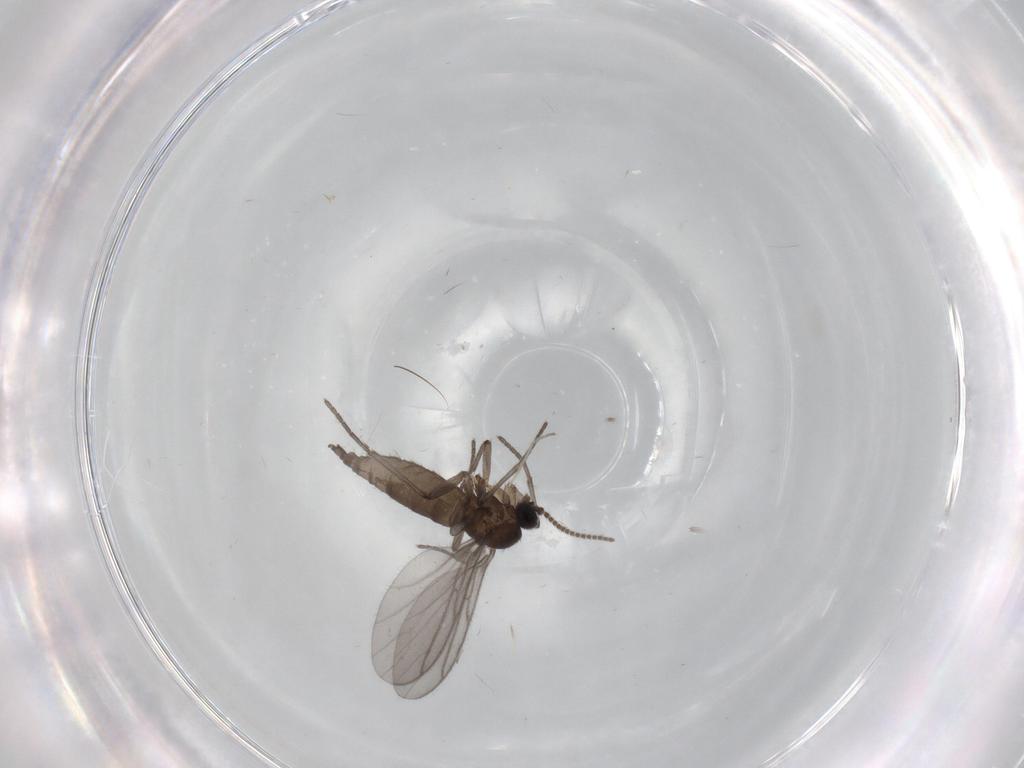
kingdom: Animalia
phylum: Arthropoda
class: Insecta
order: Diptera
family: Sciaridae
